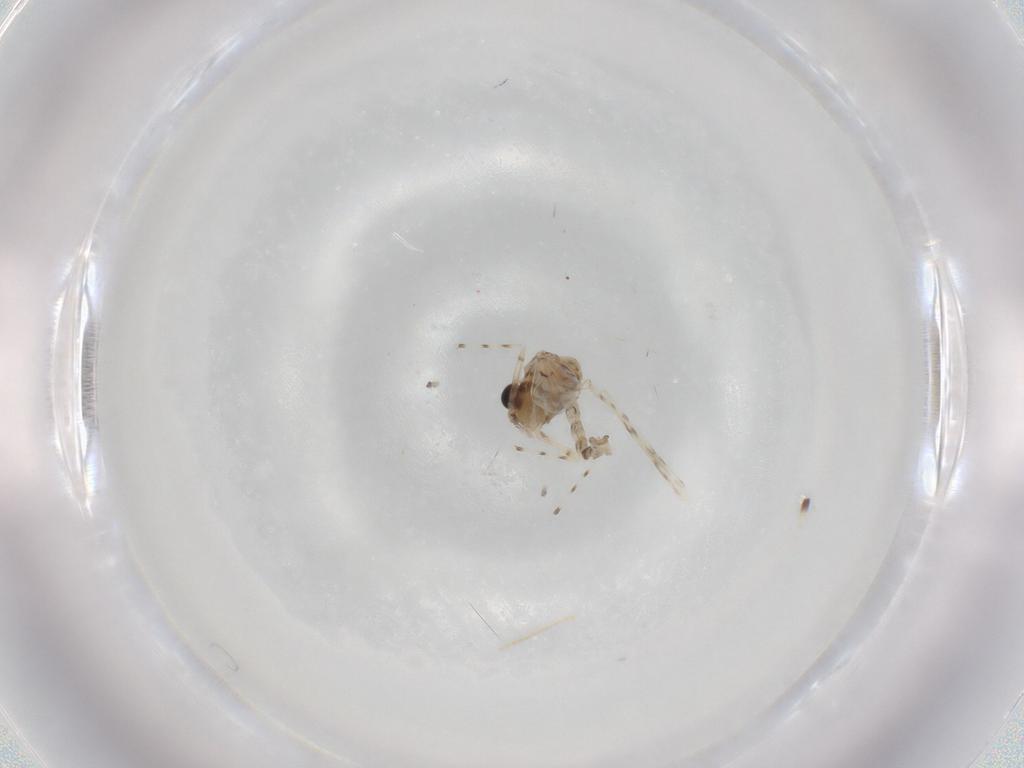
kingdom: Animalia
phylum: Arthropoda
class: Insecta
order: Diptera
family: Chironomidae
